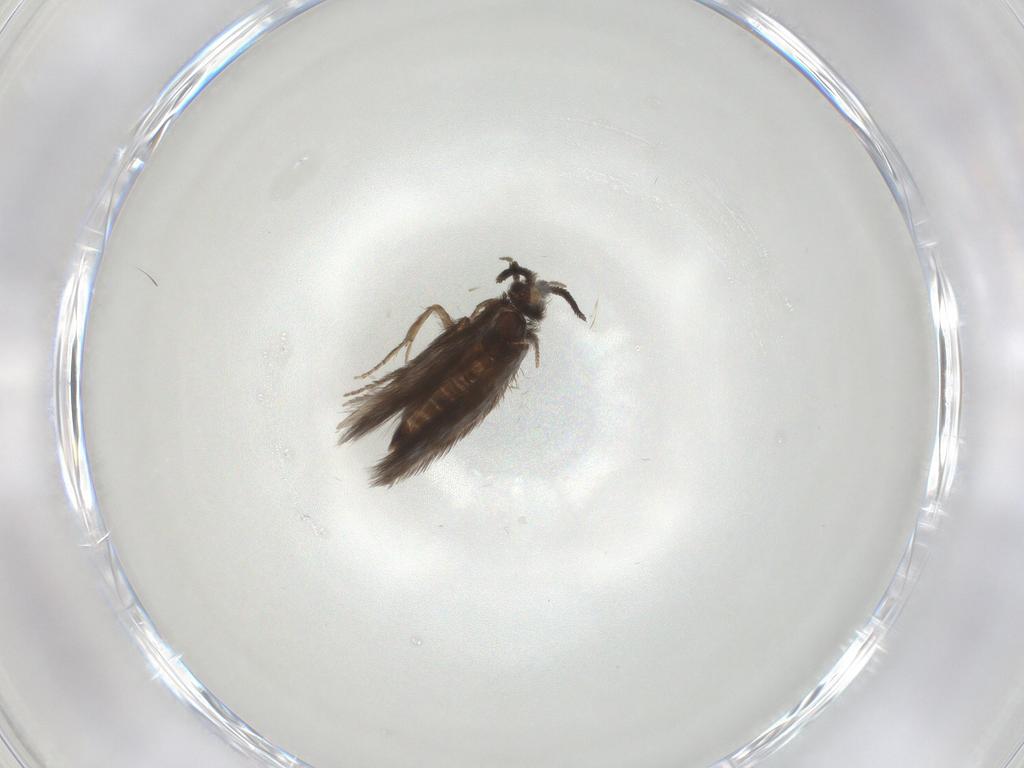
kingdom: Animalia
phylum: Arthropoda
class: Insecta
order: Trichoptera
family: Hydroptilidae
